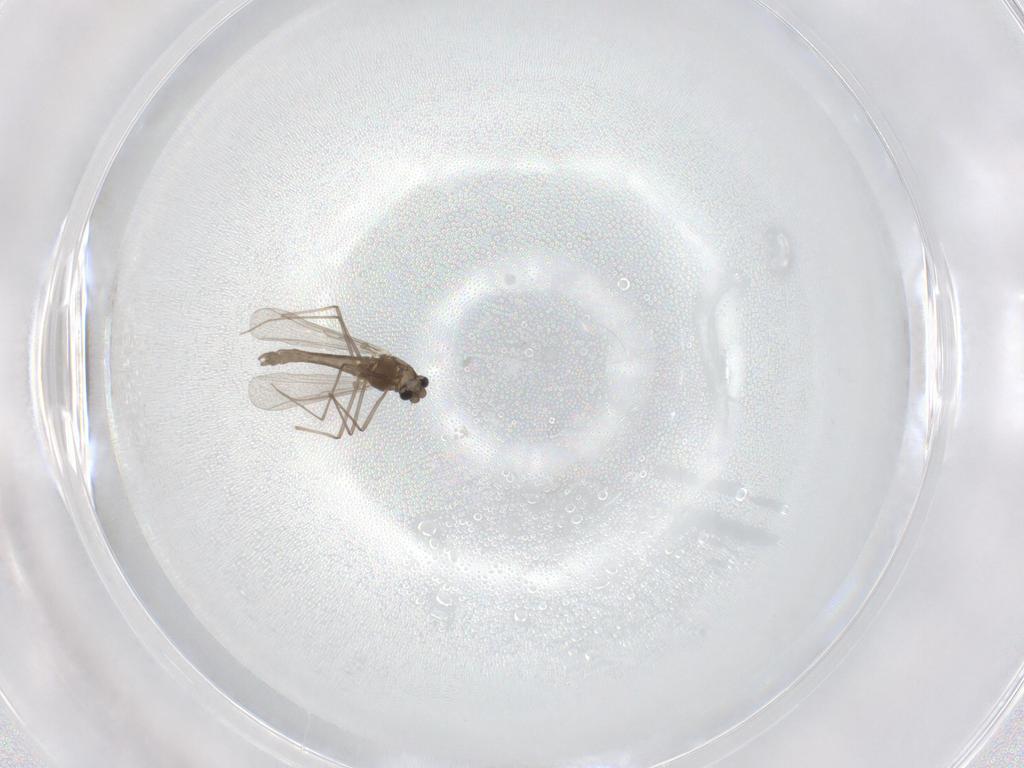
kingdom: Animalia
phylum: Arthropoda
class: Insecta
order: Diptera
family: Chironomidae
